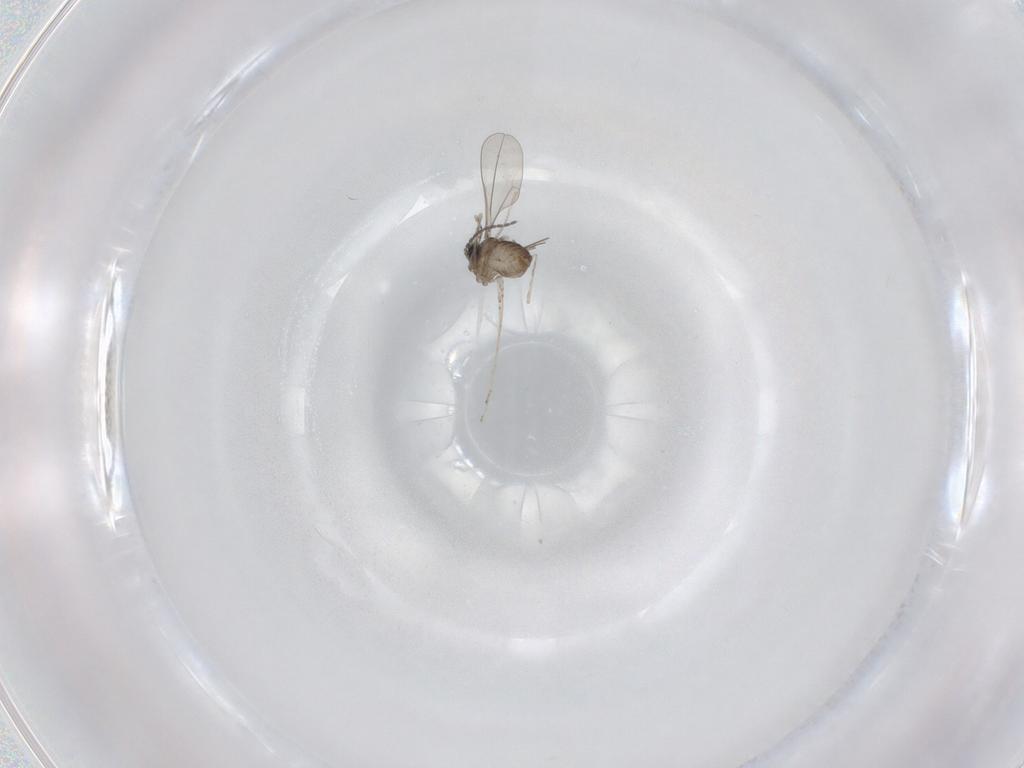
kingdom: Animalia
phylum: Arthropoda
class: Insecta
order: Diptera
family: Cecidomyiidae
